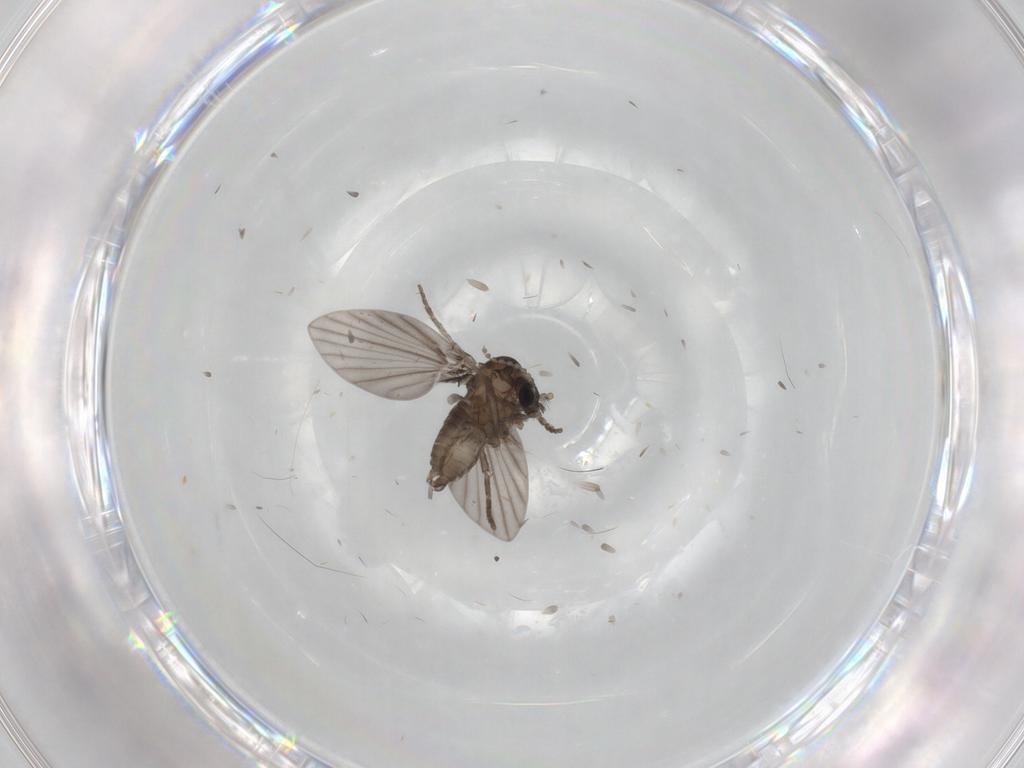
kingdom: Animalia
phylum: Arthropoda
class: Insecta
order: Diptera
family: Psychodidae
